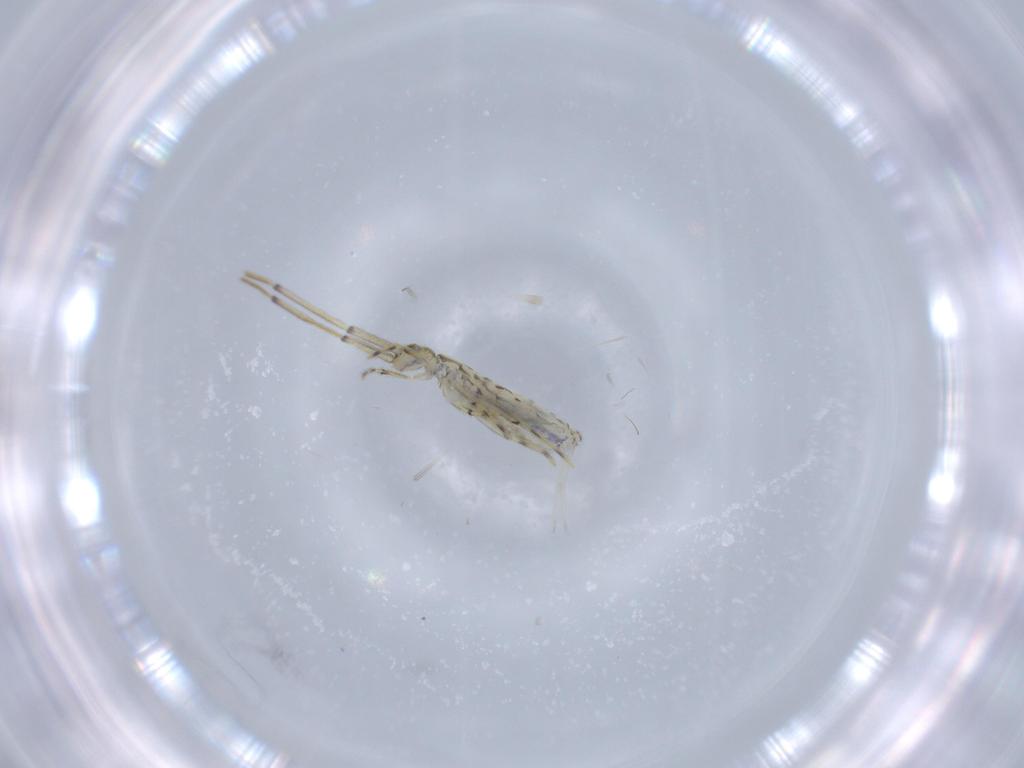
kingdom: Animalia
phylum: Arthropoda
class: Collembola
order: Entomobryomorpha
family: Paronellidae
